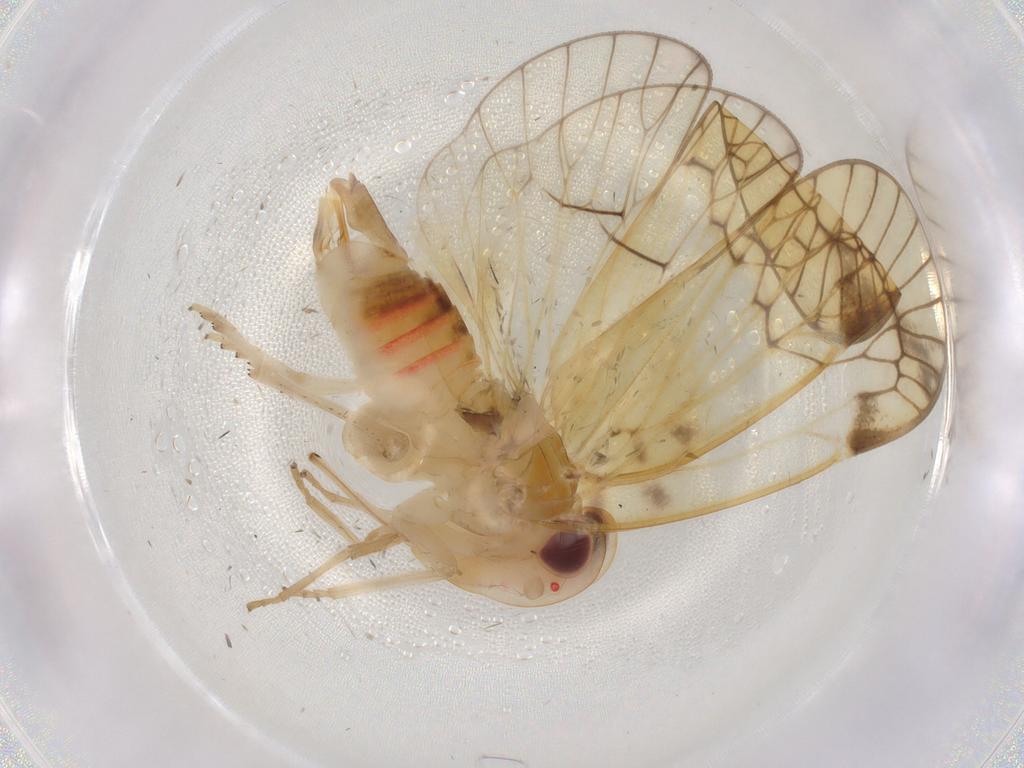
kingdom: Animalia
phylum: Arthropoda
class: Insecta
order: Hemiptera
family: Cixiidae
